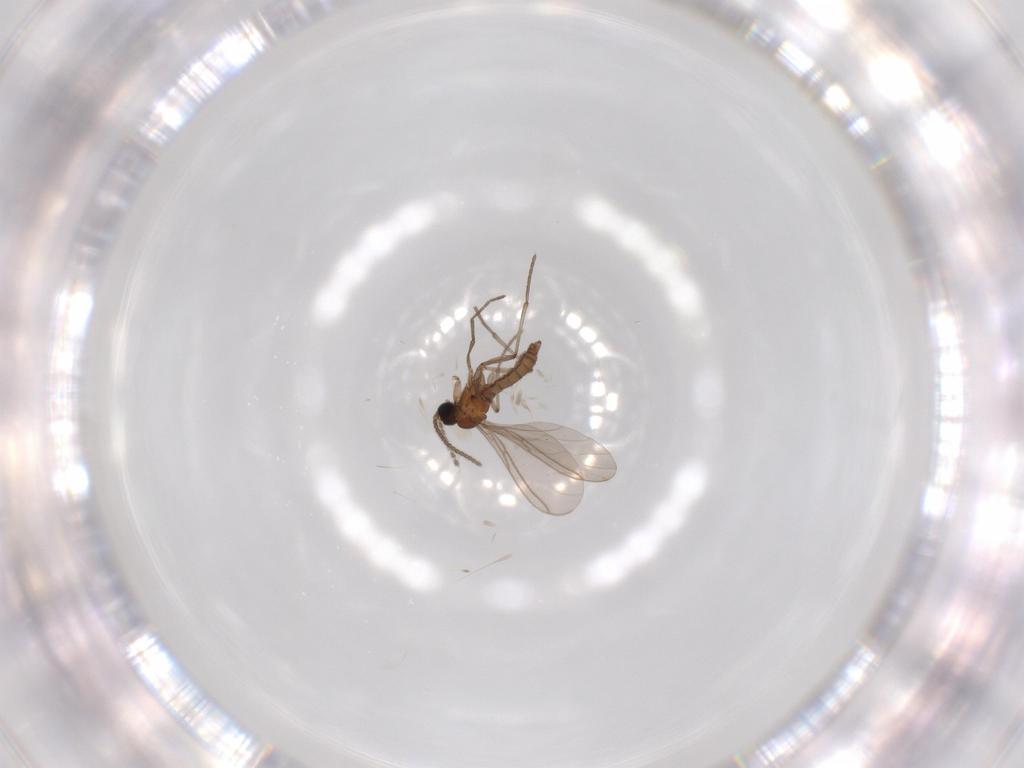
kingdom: Animalia
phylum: Arthropoda
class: Insecta
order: Diptera
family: Sciaridae
